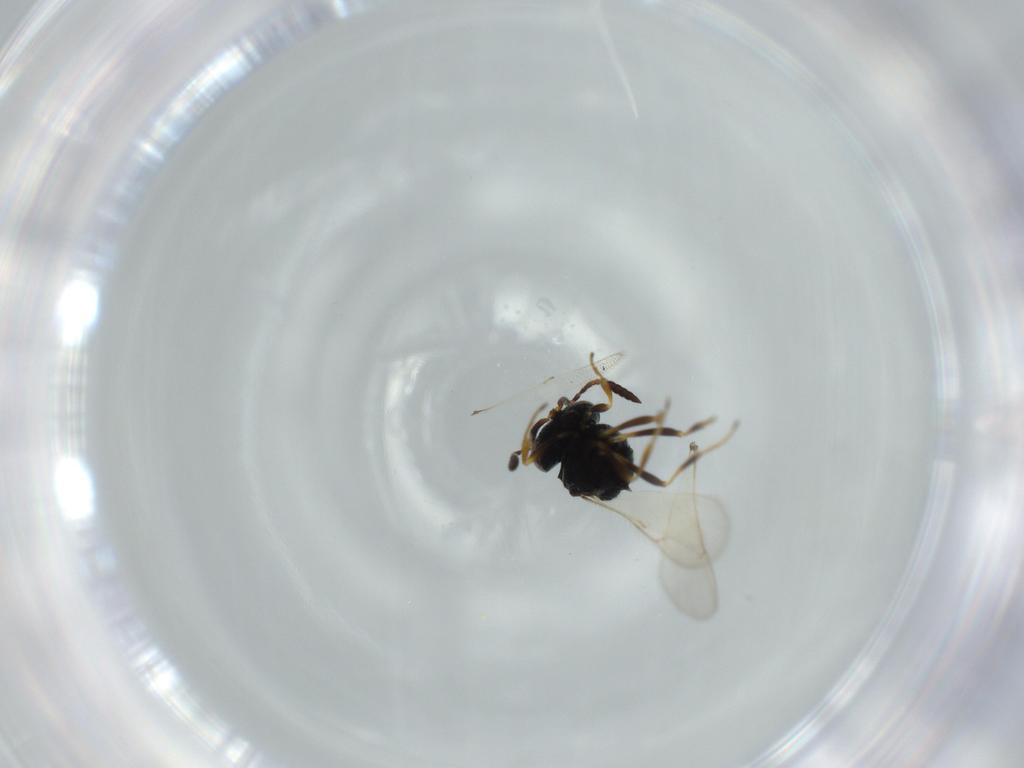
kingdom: Animalia
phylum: Arthropoda
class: Insecta
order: Hymenoptera
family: Scelionidae
